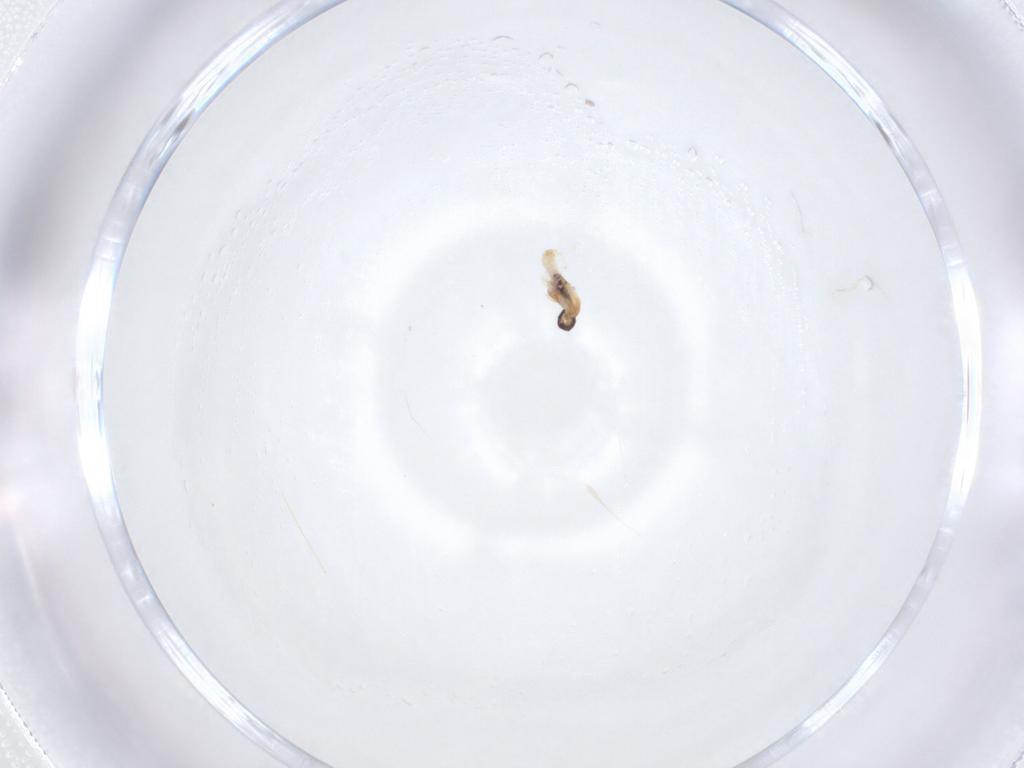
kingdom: Animalia
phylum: Arthropoda
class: Insecta
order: Diptera
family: Cecidomyiidae
